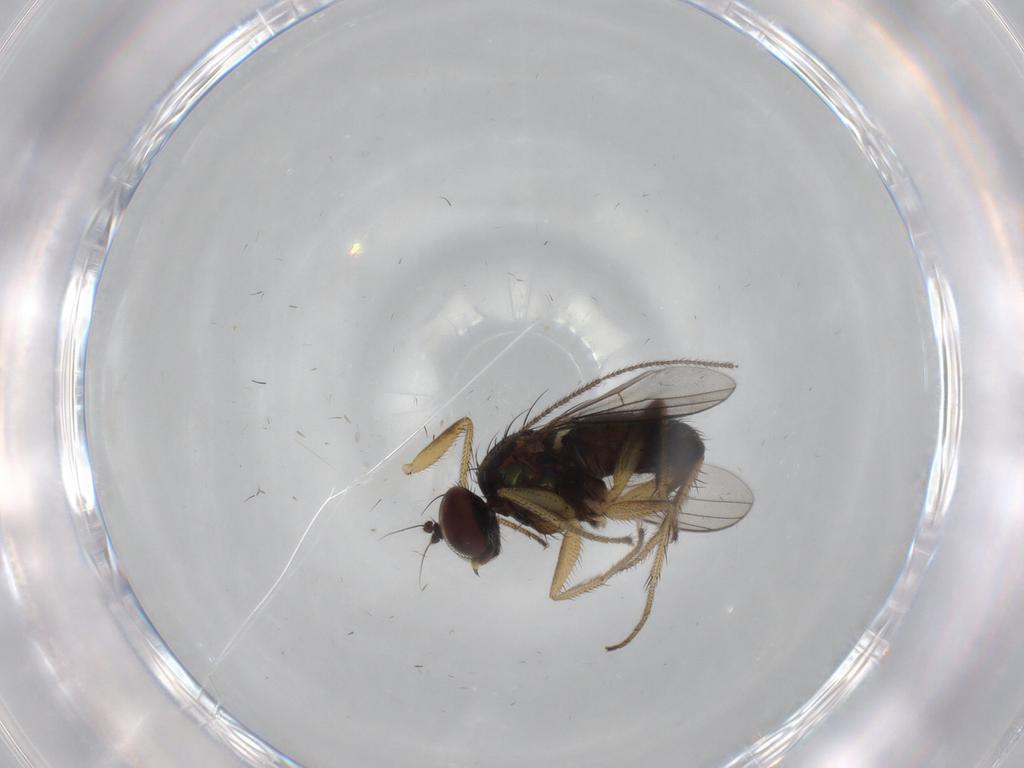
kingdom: Animalia
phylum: Arthropoda
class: Insecta
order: Diptera
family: Dolichopodidae
